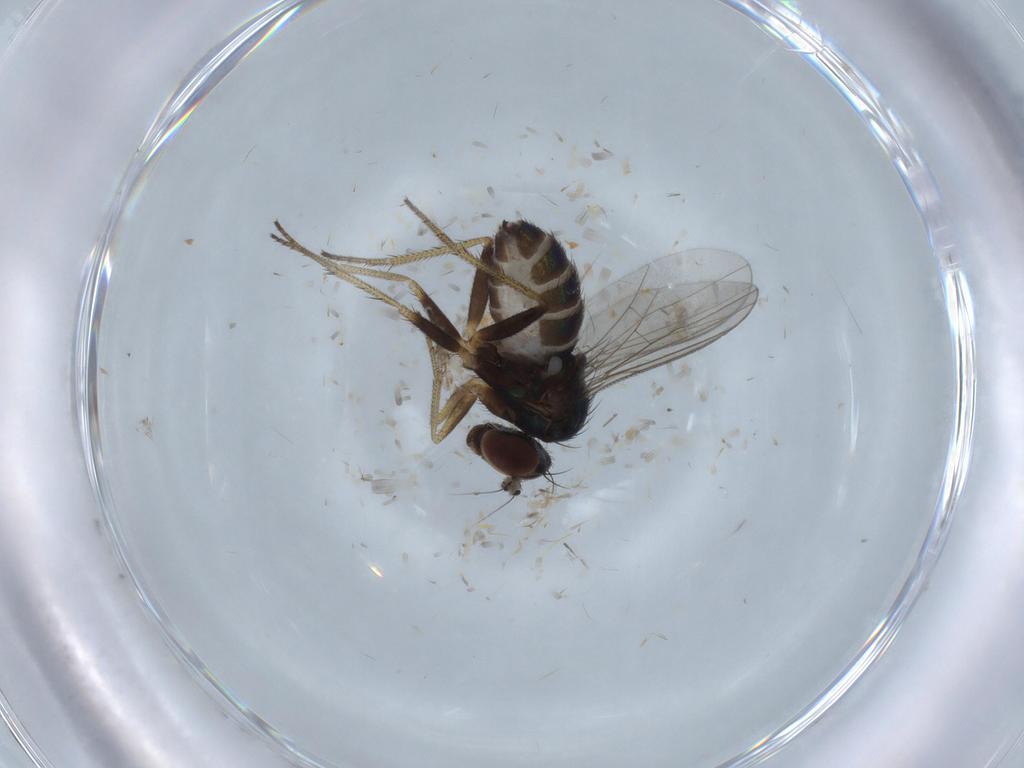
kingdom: Animalia
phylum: Arthropoda
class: Insecta
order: Diptera
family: Phoridae
